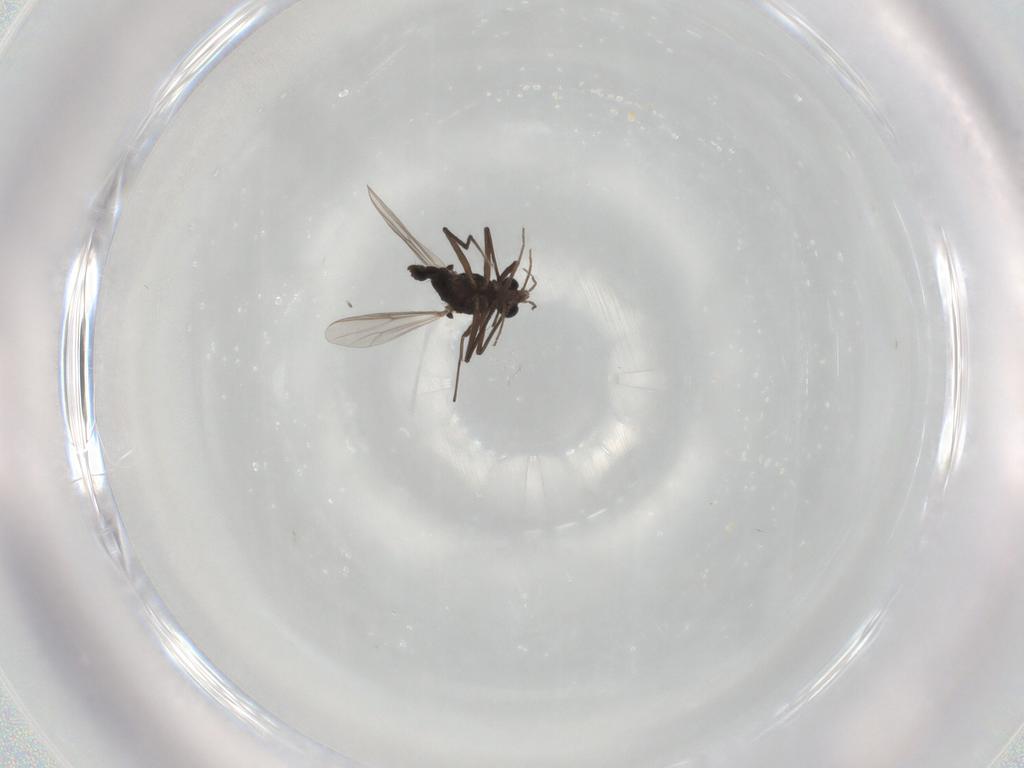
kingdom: Animalia
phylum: Arthropoda
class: Insecta
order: Diptera
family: Chironomidae
